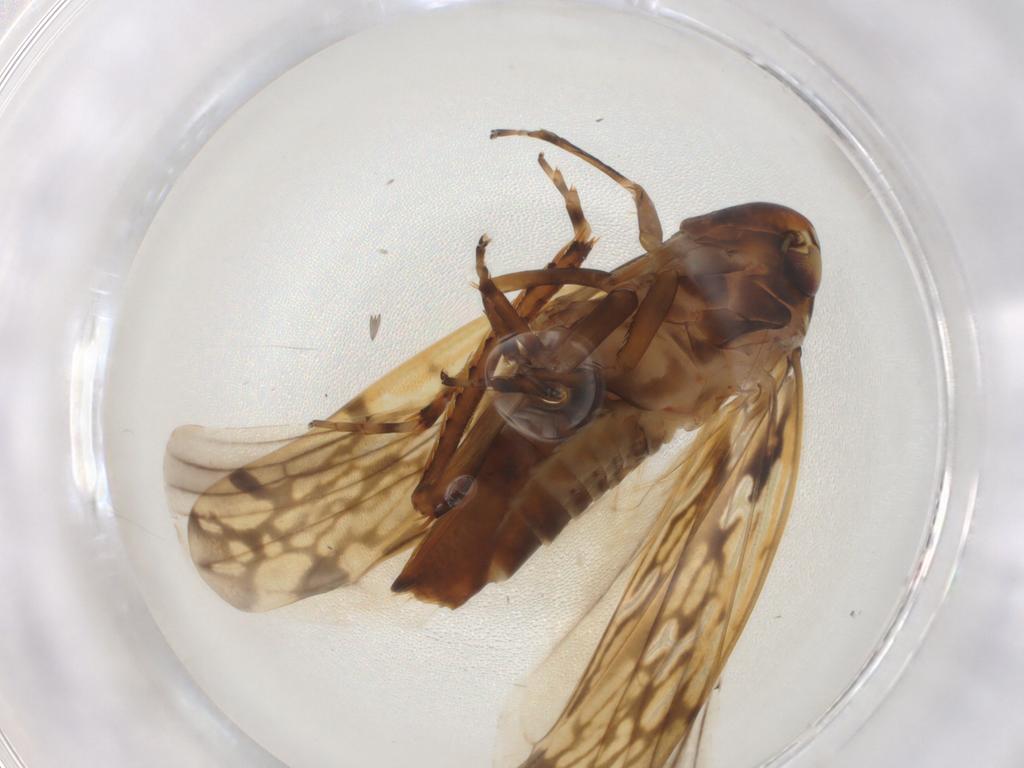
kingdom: Animalia
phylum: Arthropoda
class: Insecta
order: Hemiptera
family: Cicadellidae
